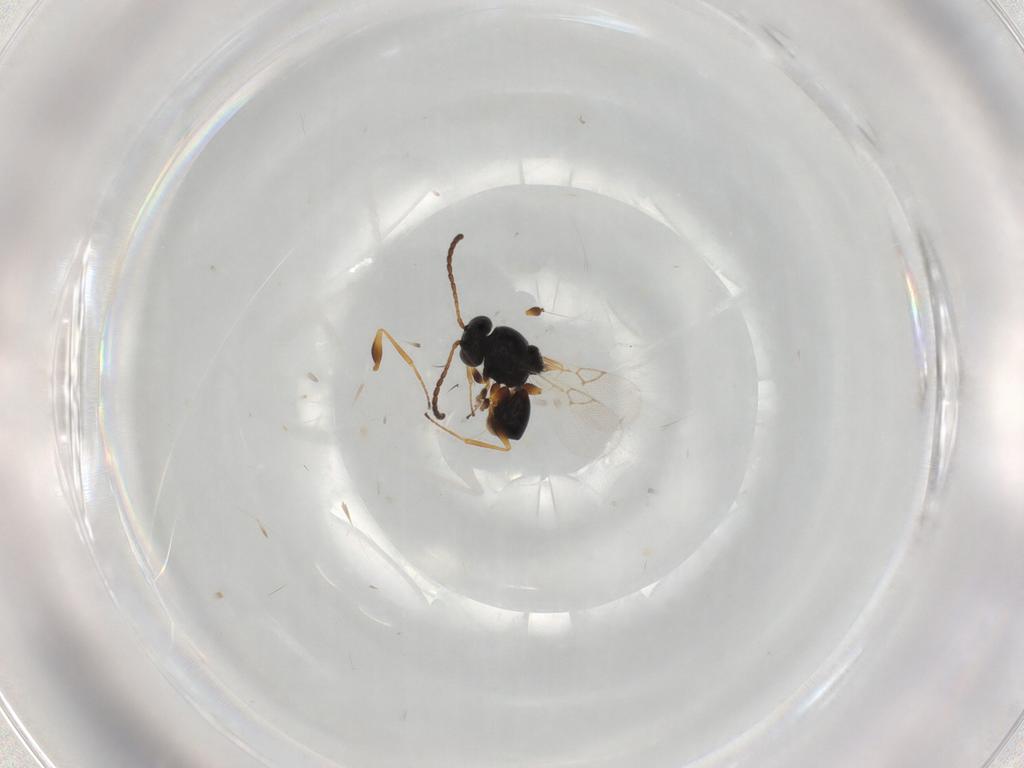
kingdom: Animalia
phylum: Arthropoda
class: Insecta
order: Hymenoptera
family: Figitidae
